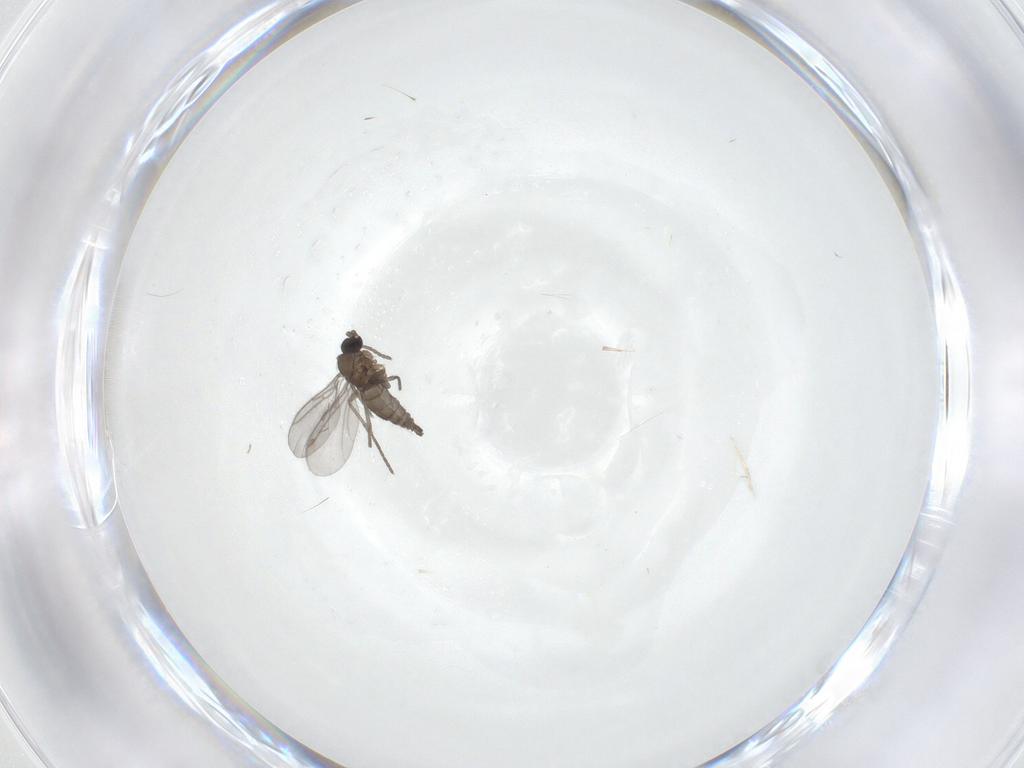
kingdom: Animalia
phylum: Arthropoda
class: Insecta
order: Diptera
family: Sciaridae
